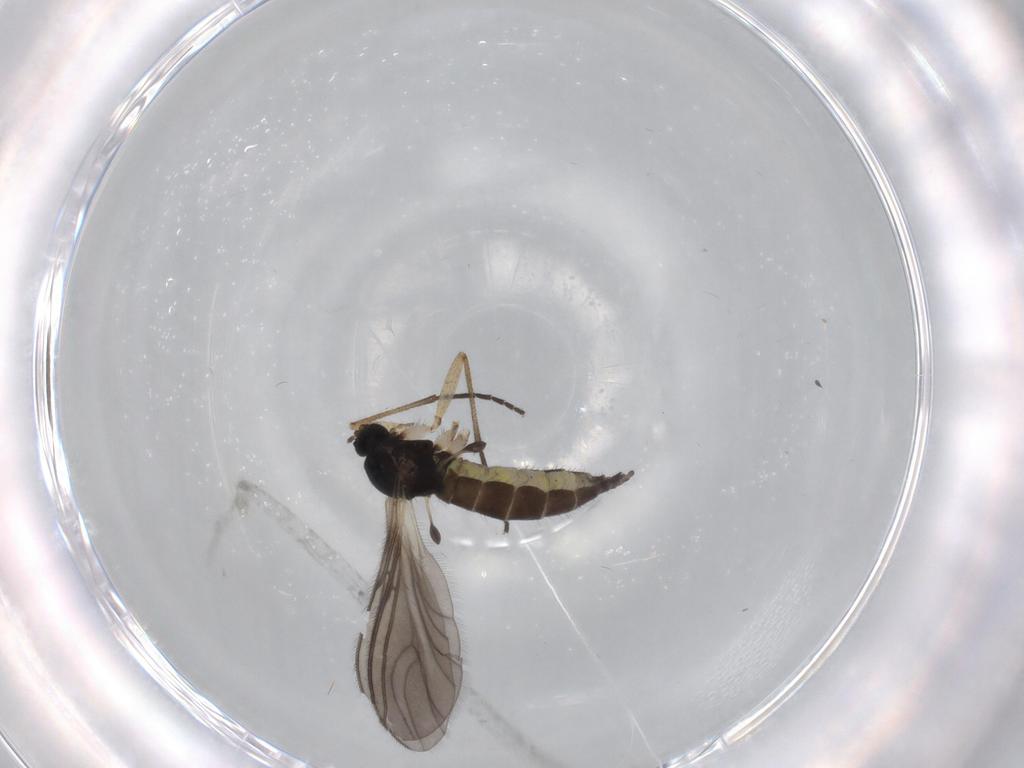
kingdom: Animalia
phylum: Arthropoda
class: Insecta
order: Diptera
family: Sciaridae
